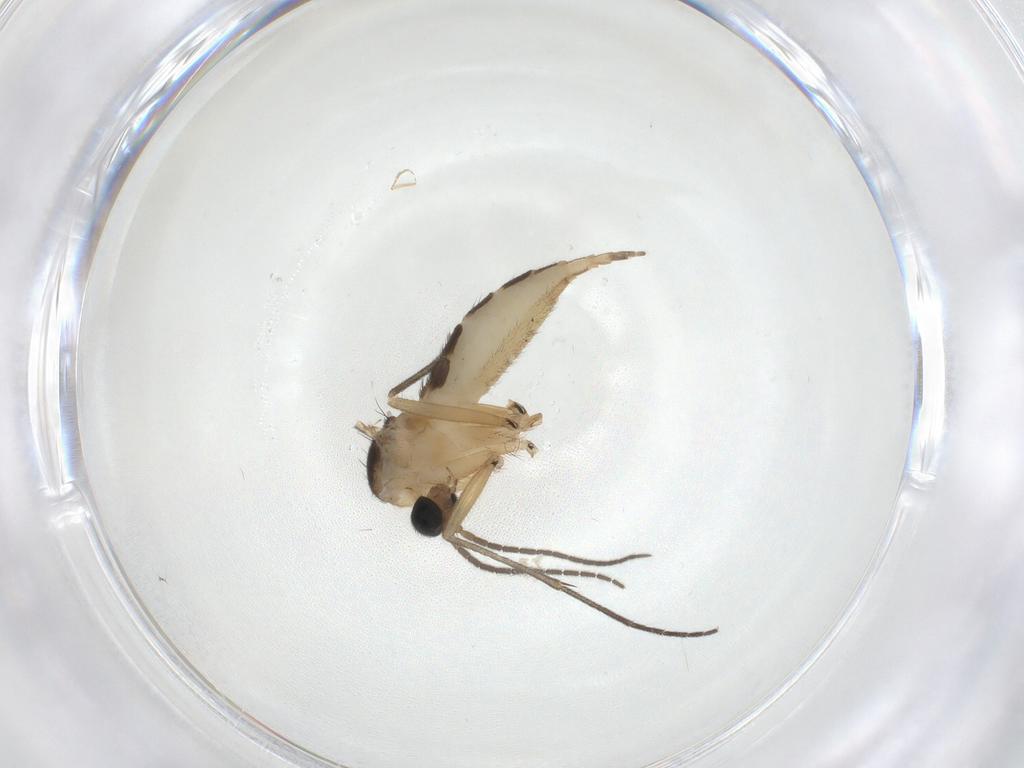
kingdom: Animalia
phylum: Arthropoda
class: Insecta
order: Diptera
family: Sciaridae
